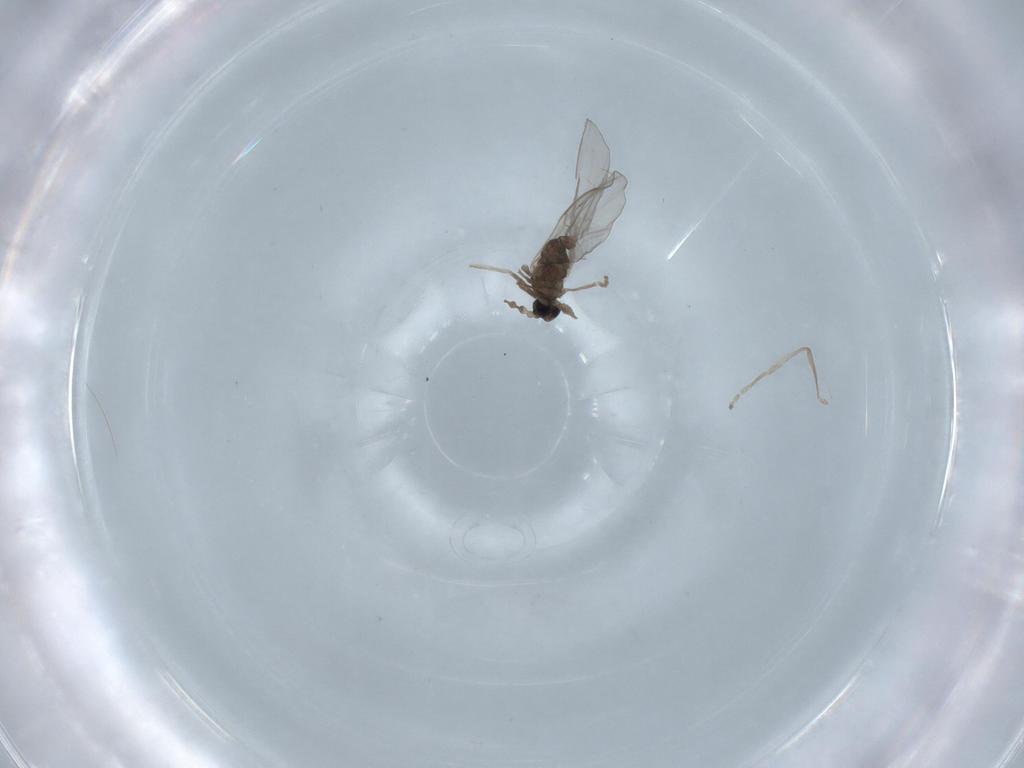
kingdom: Animalia
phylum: Arthropoda
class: Insecta
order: Diptera
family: Cecidomyiidae
